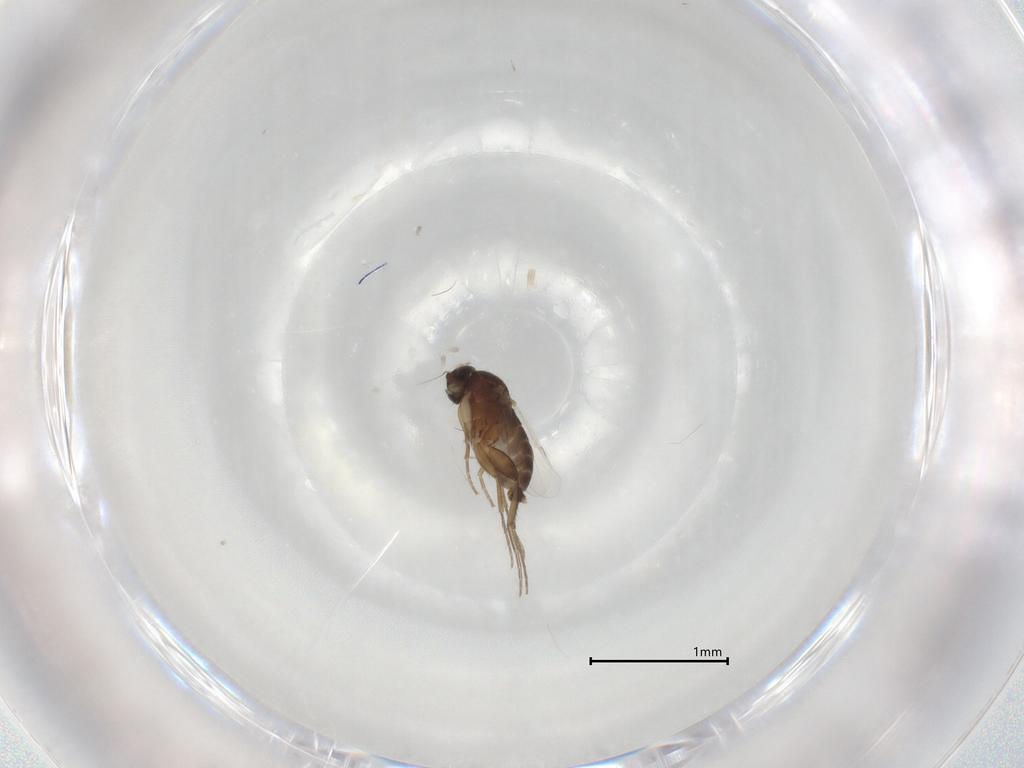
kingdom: Animalia
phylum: Arthropoda
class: Insecta
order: Diptera
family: Phoridae
